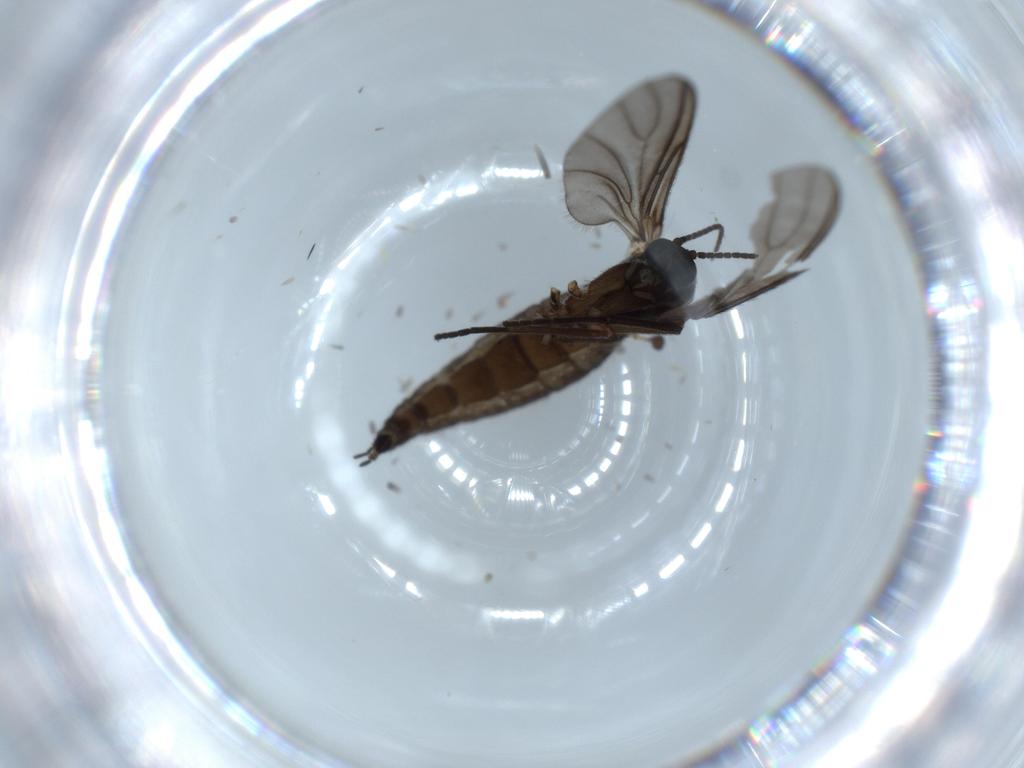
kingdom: Animalia
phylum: Arthropoda
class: Insecta
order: Diptera
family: Sciaridae
